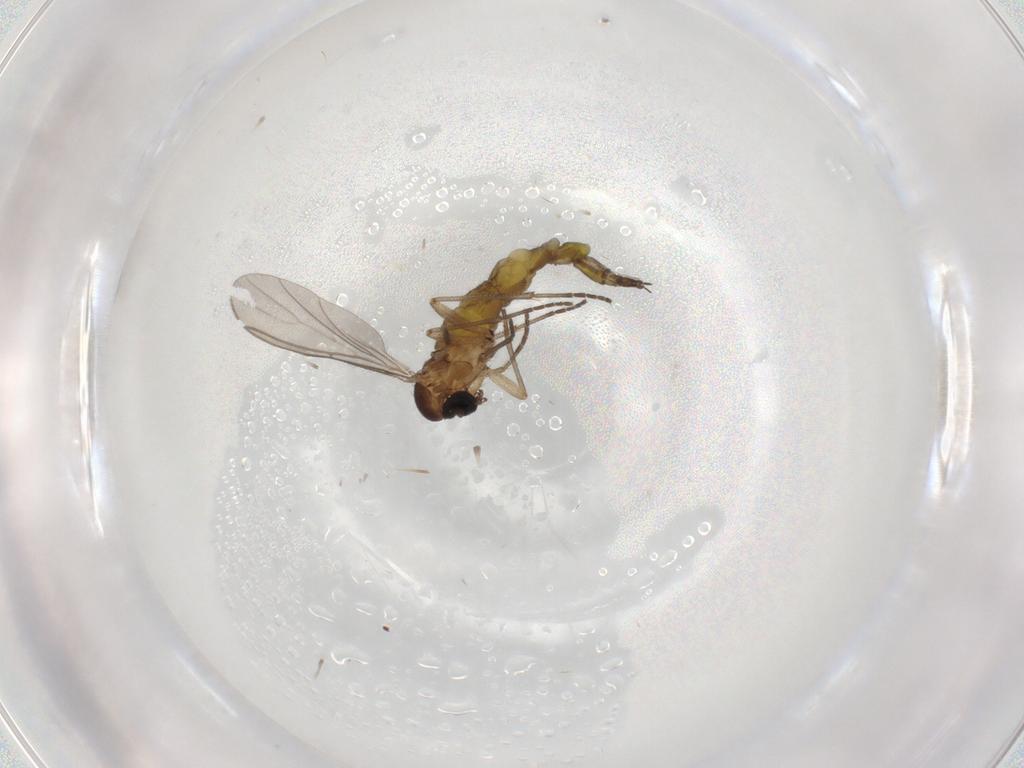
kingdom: Animalia
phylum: Arthropoda
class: Insecta
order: Diptera
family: Sciaridae
